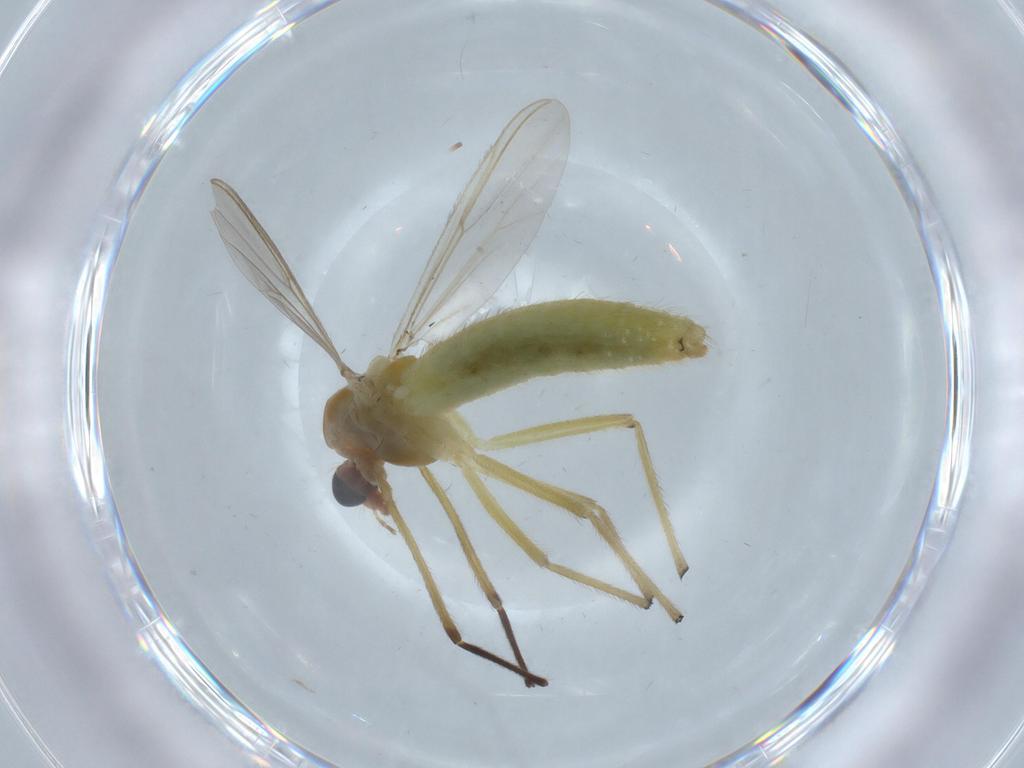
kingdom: Animalia
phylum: Arthropoda
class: Insecta
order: Diptera
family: Chironomidae
